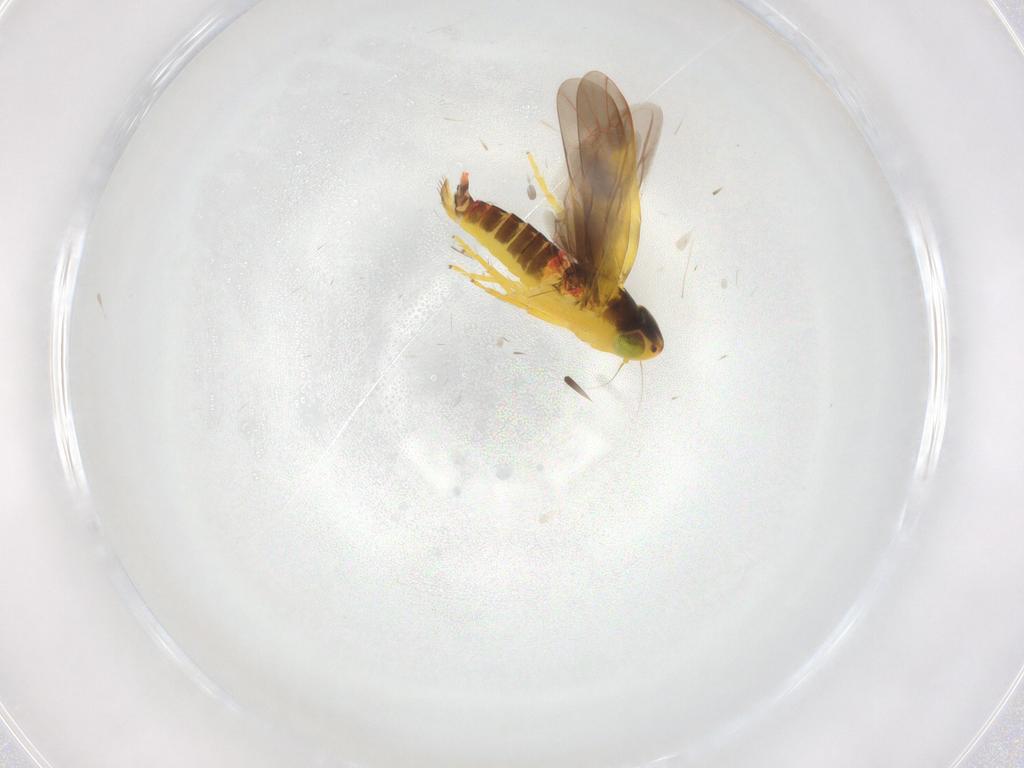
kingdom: Animalia
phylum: Arthropoda
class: Insecta
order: Hemiptera
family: Cicadellidae
